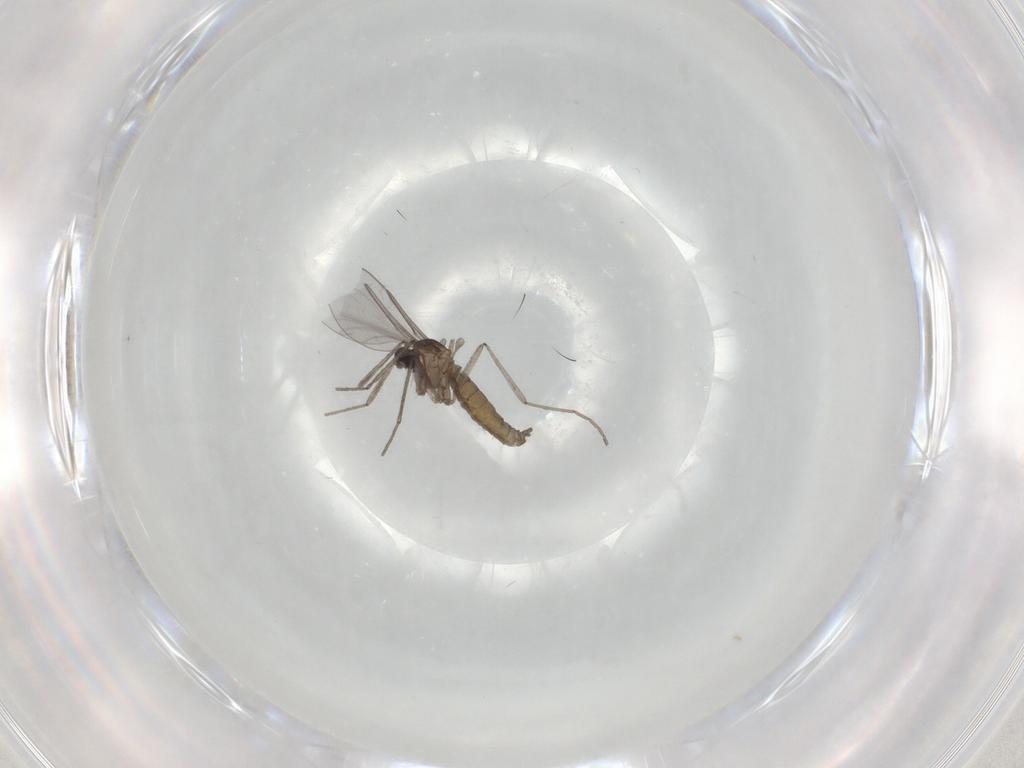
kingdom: Animalia
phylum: Arthropoda
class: Insecta
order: Diptera
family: Cecidomyiidae
